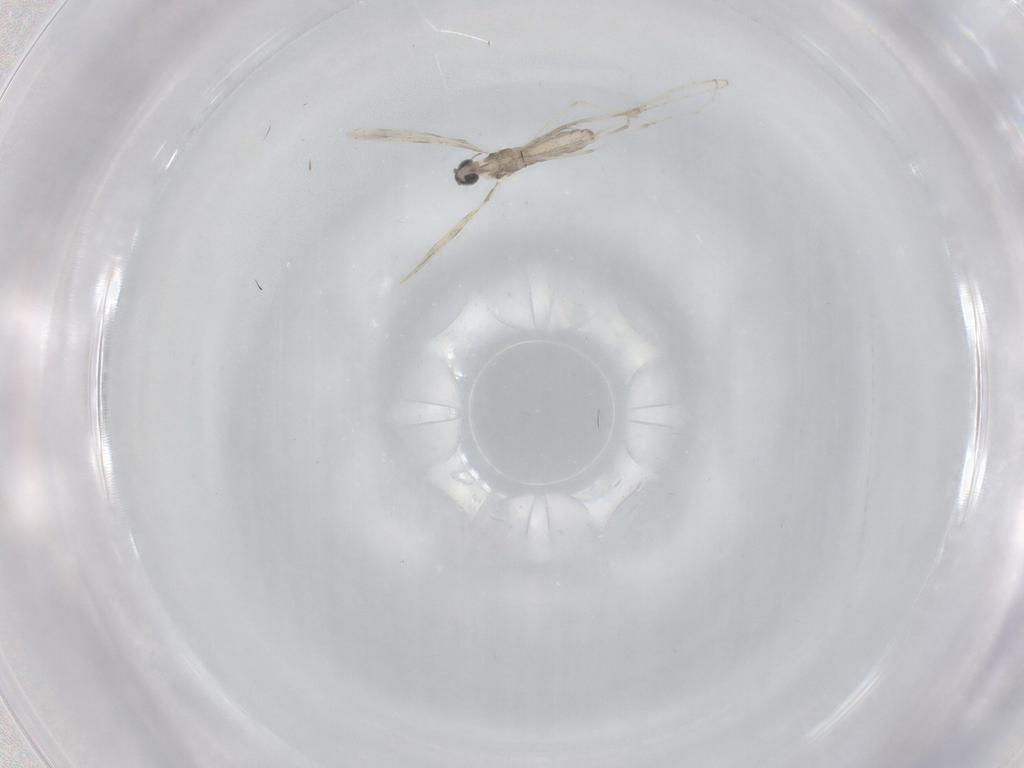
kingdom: Animalia
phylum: Arthropoda
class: Insecta
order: Diptera
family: Cecidomyiidae
